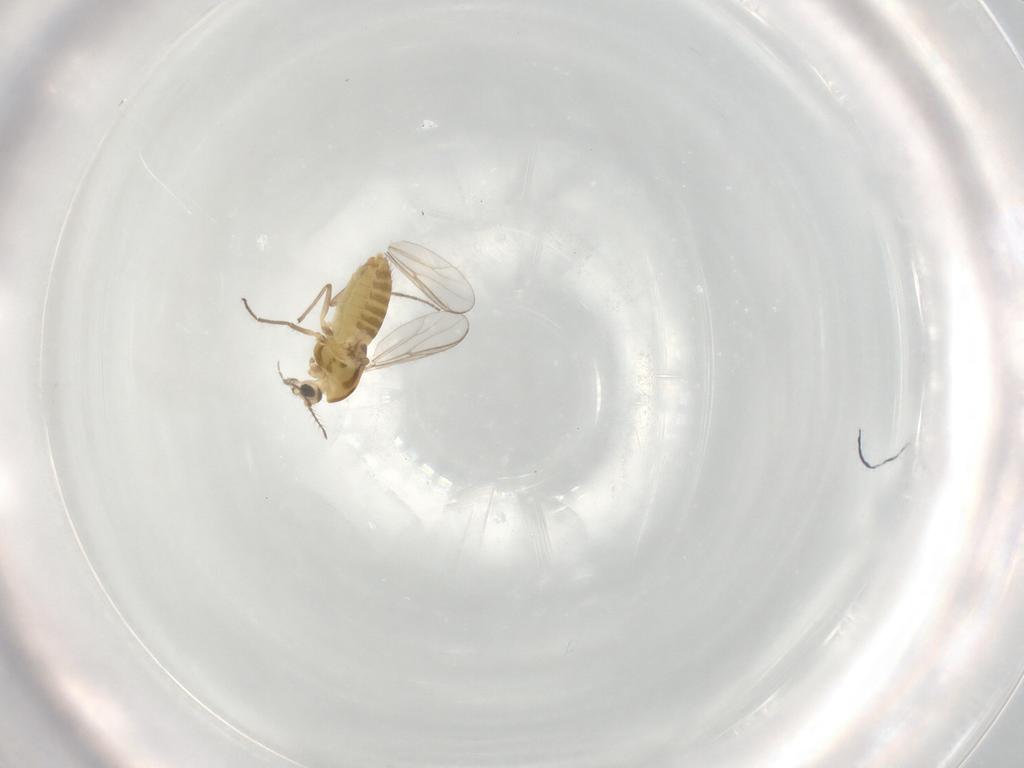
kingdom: Animalia
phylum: Arthropoda
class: Insecta
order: Diptera
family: Chironomidae
